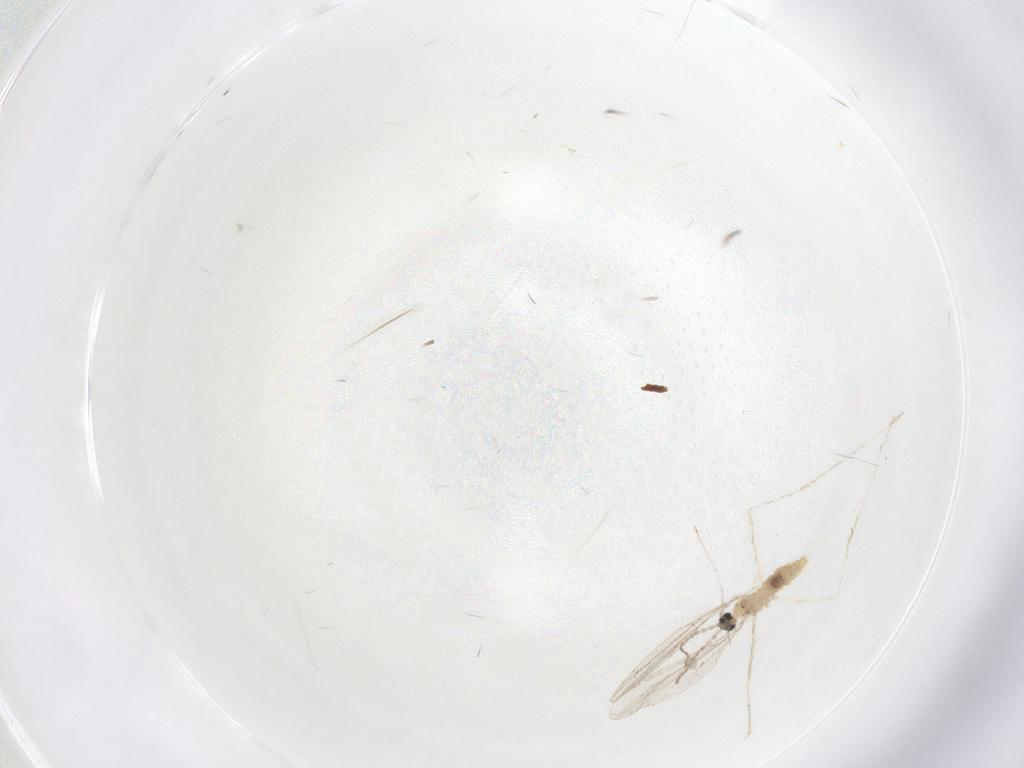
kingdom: Animalia
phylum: Arthropoda
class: Insecta
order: Diptera
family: Cecidomyiidae
